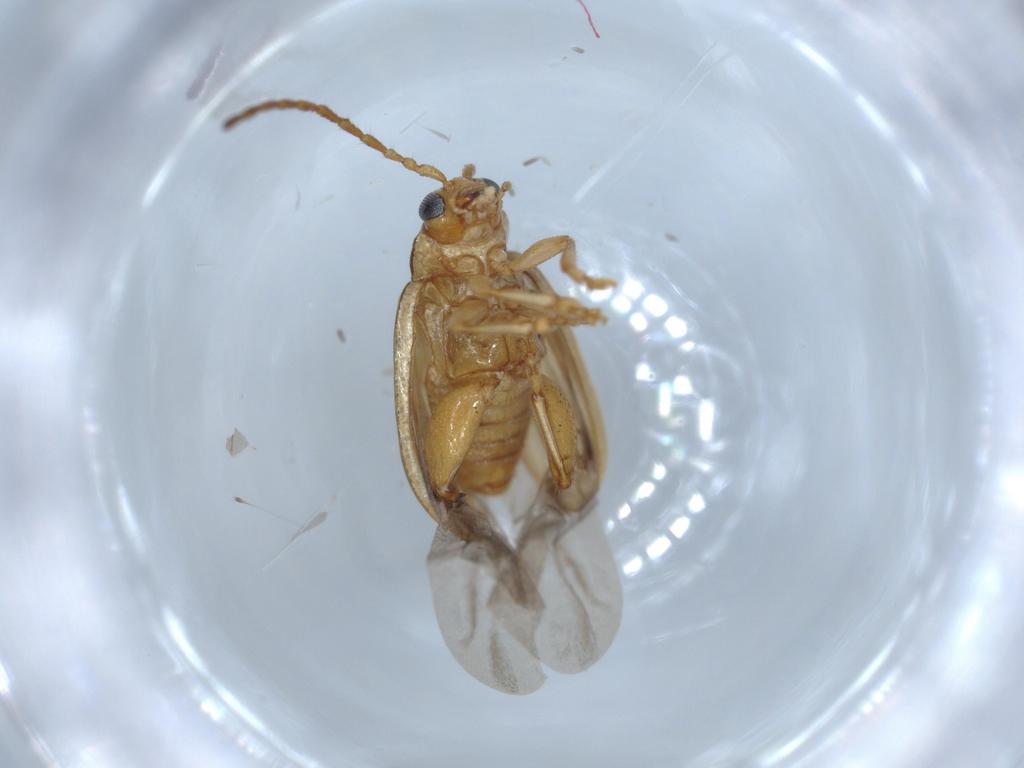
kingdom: Animalia
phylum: Arthropoda
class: Insecta
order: Coleoptera
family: Chrysomelidae
